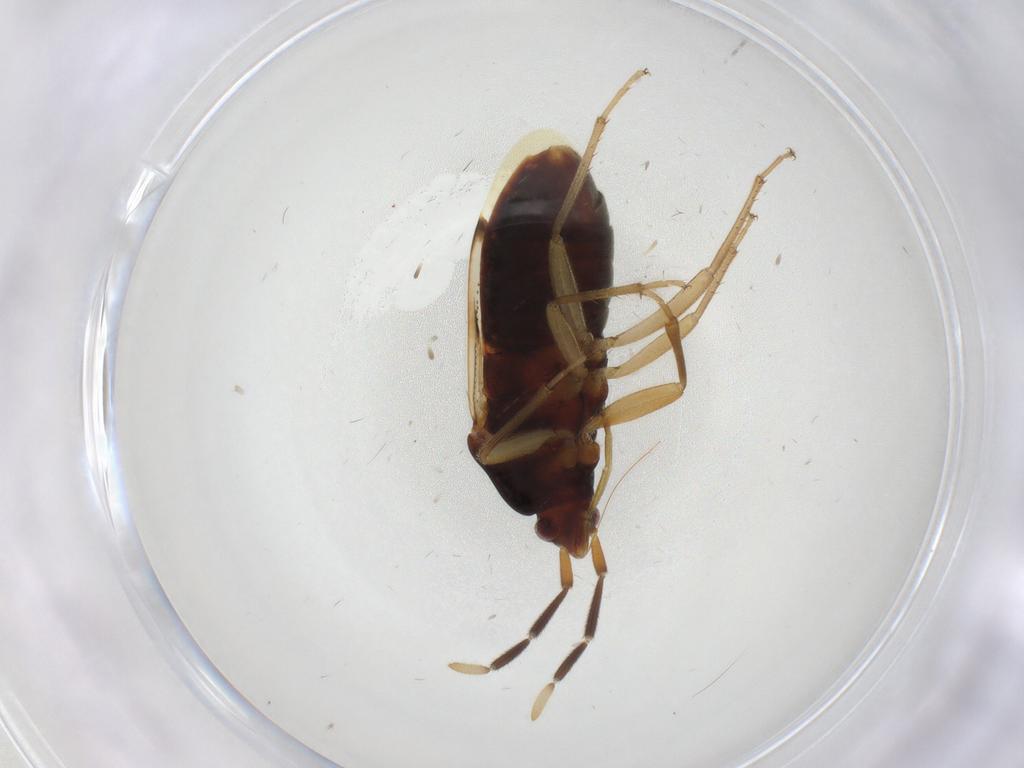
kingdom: Animalia
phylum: Arthropoda
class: Insecta
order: Hemiptera
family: Rhyparochromidae
